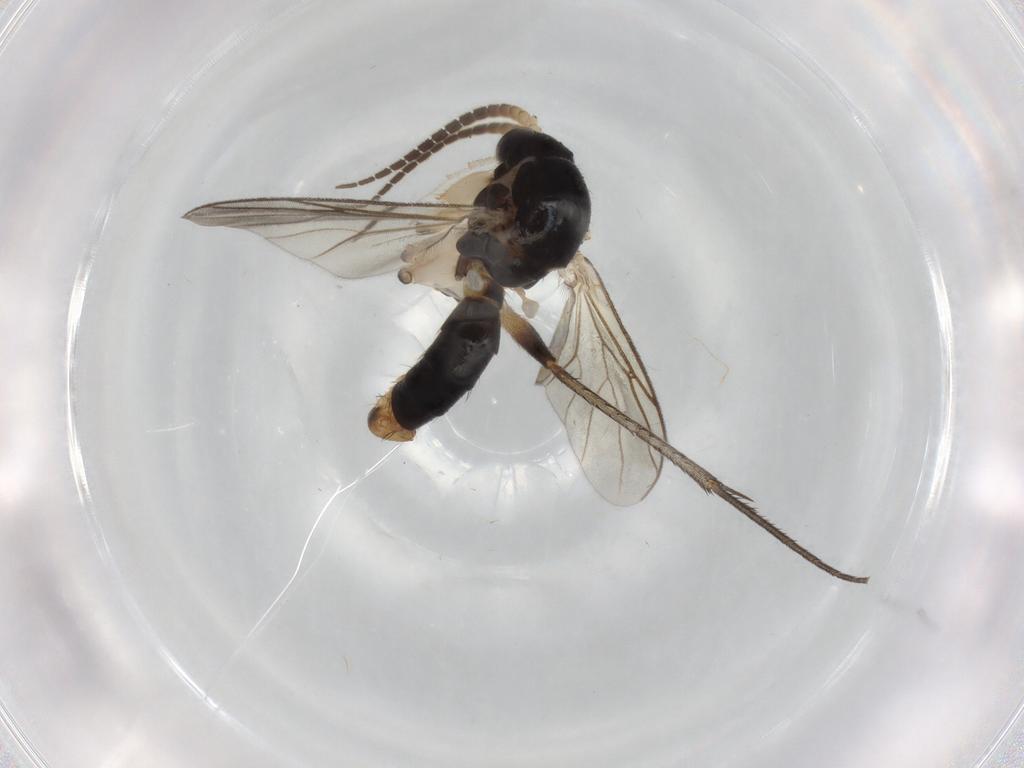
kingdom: Animalia
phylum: Arthropoda
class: Insecta
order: Diptera
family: Mycetophilidae
